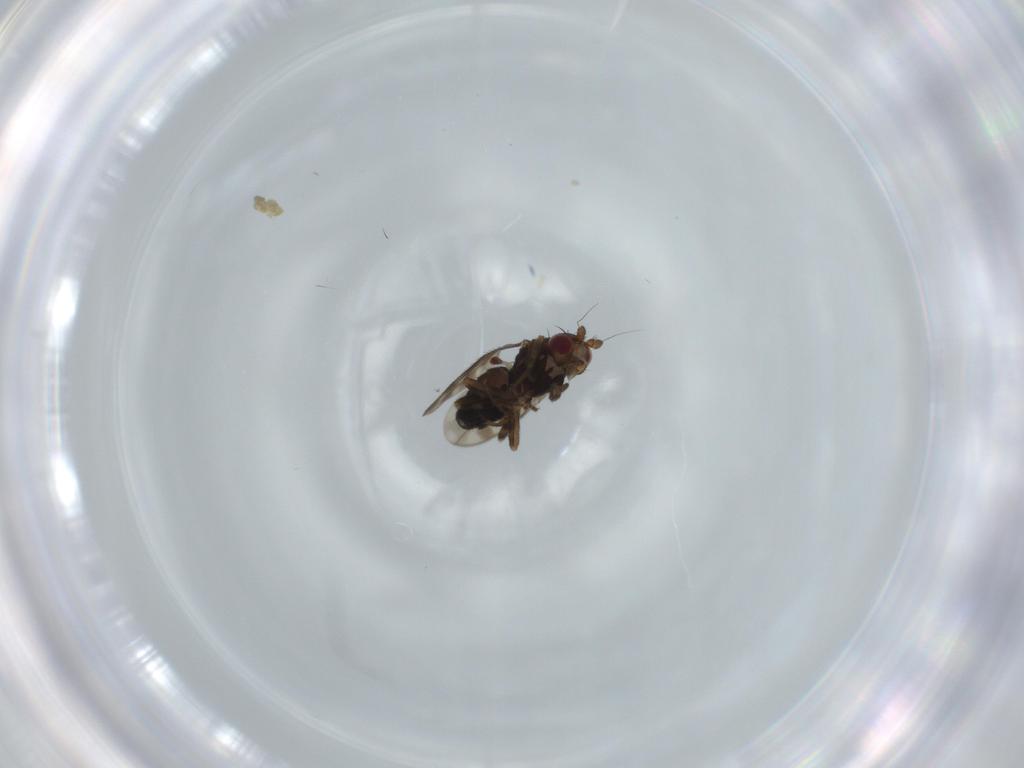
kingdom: Animalia
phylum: Arthropoda
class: Insecta
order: Diptera
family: Sphaeroceridae
